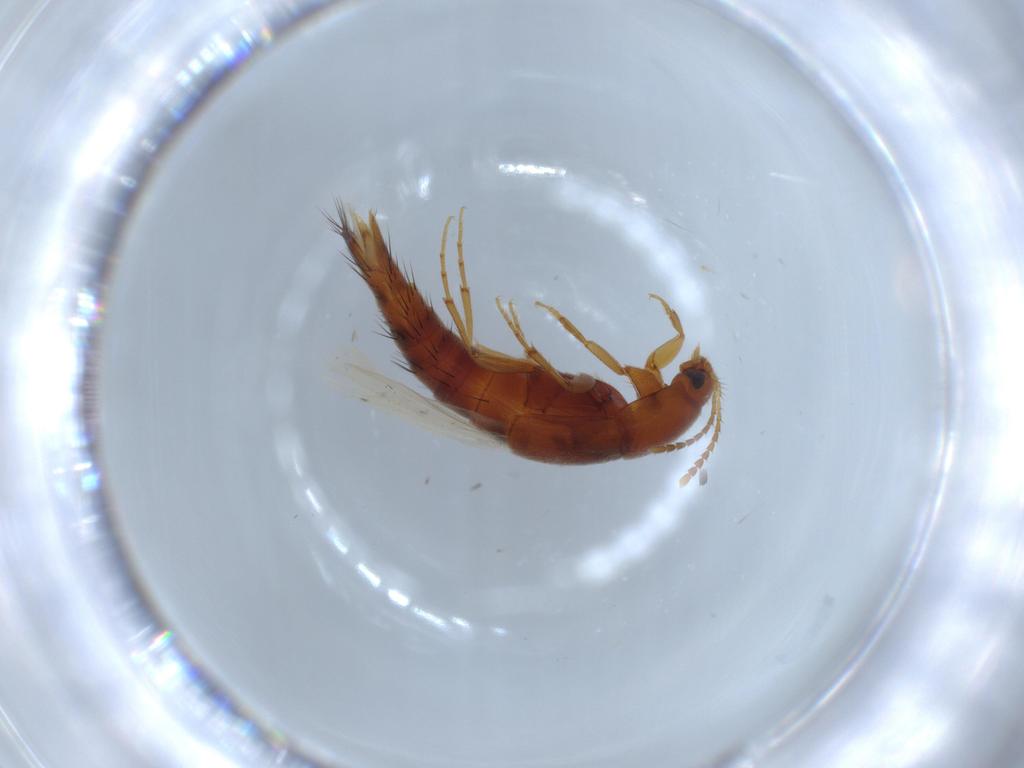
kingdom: Animalia
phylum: Arthropoda
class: Insecta
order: Coleoptera
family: Staphylinidae
